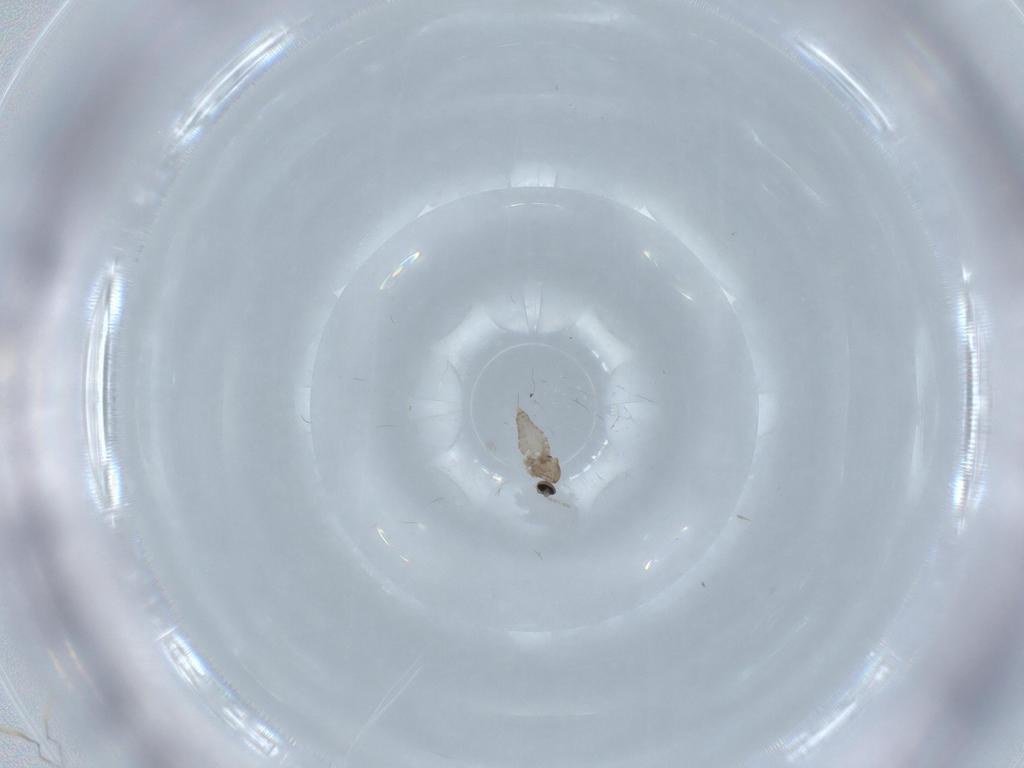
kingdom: Animalia
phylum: Arthropoda
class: Insecta
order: Diptera
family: Cecidomyiidae
